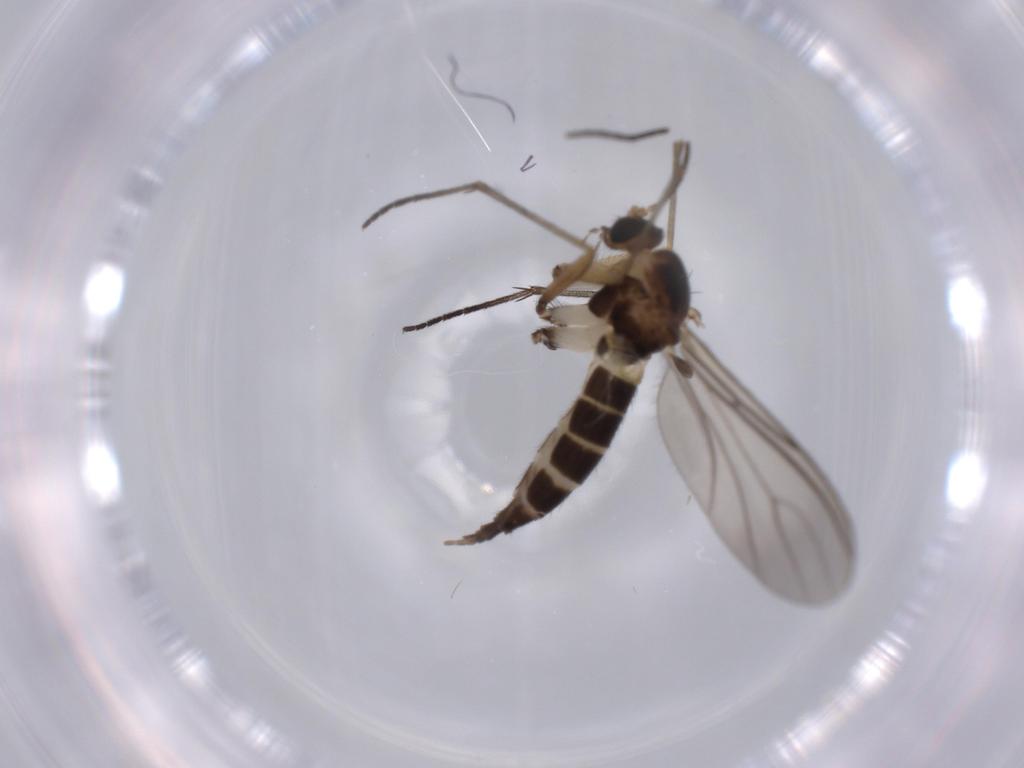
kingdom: Animalia
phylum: Arthropoda
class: Insecta
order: Diptera
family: Sciaridae
